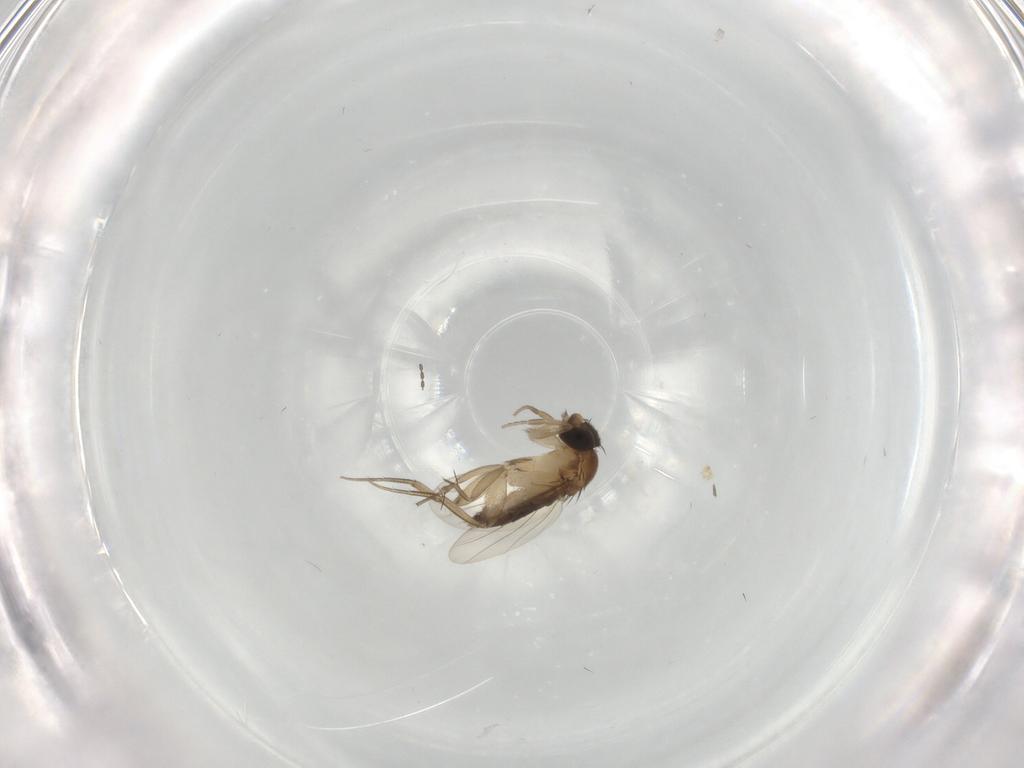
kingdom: Animalia
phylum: Arthropoda
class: Insecta
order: Diptera
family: Phoridae
